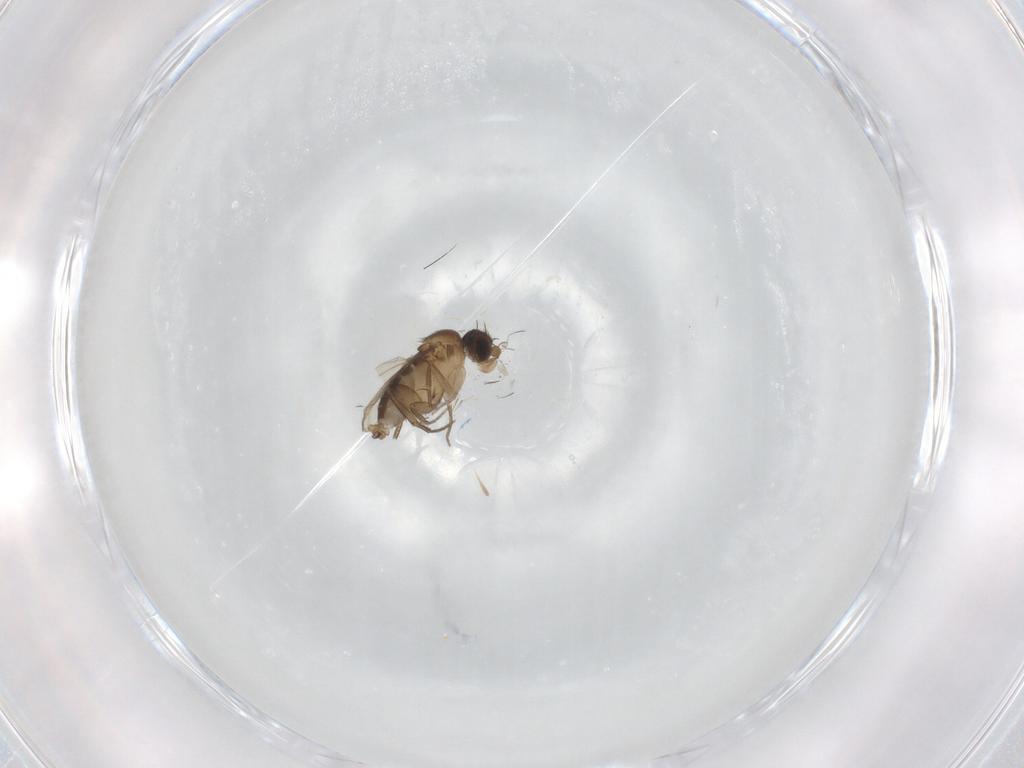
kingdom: Animalia
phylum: Arthropoda
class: Insecta
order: Diptera
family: Phoridae
